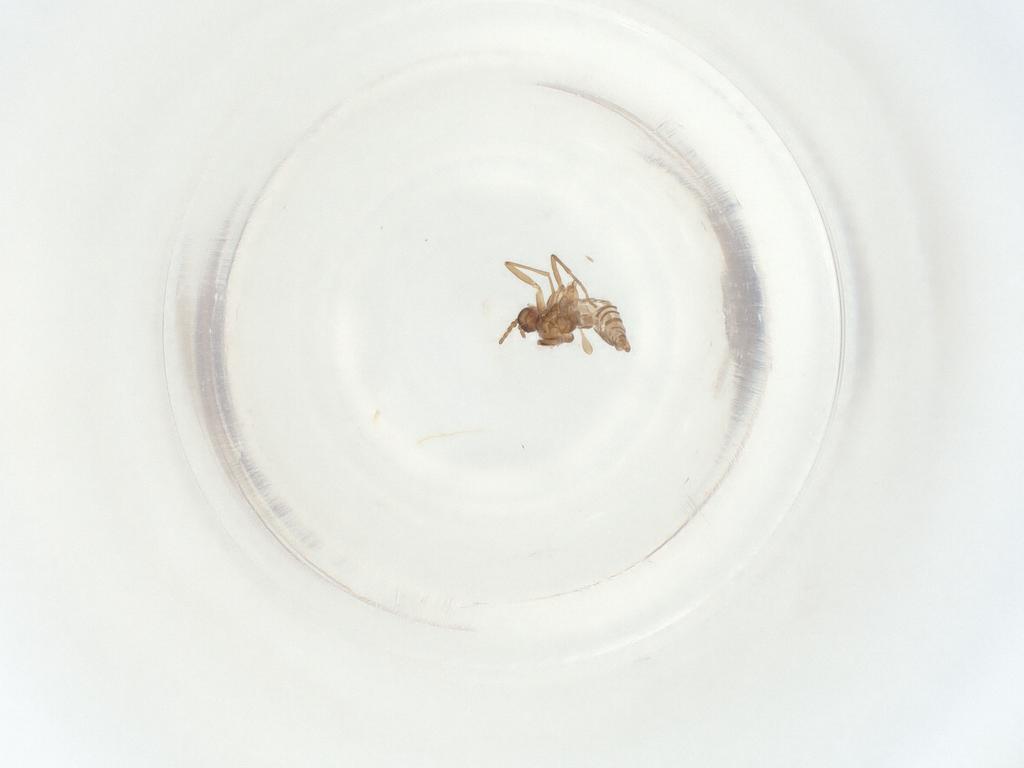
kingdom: Animalia
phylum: Arthropoda
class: Insecta
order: Diptera
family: Sciaridae
